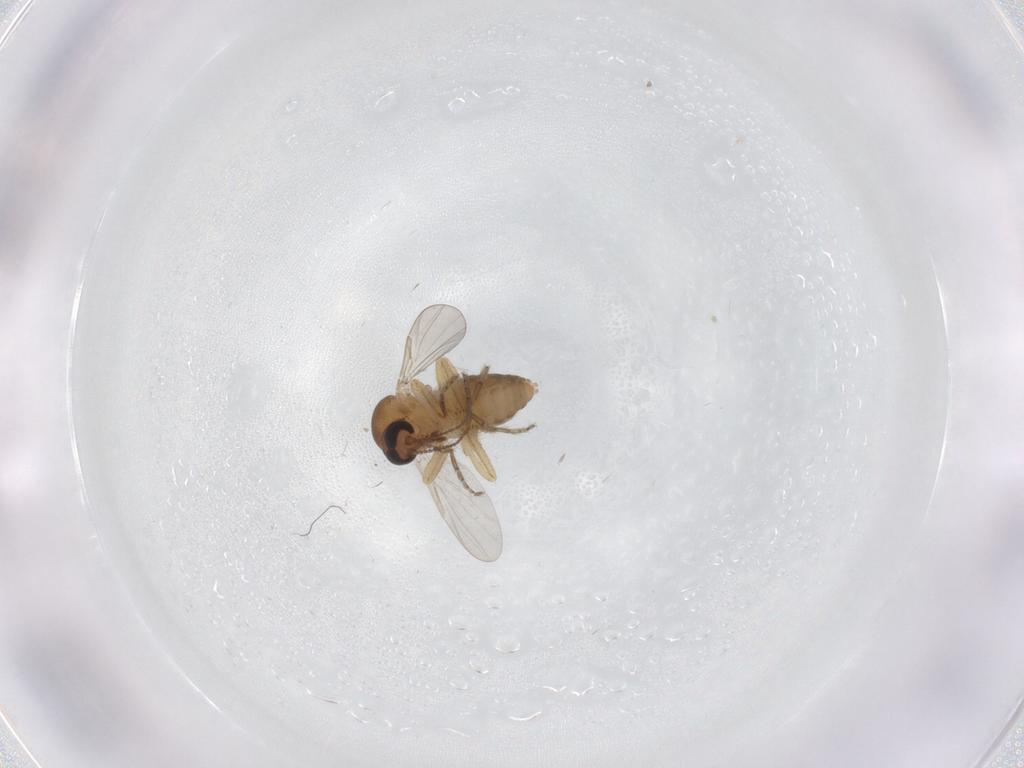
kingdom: Animalia
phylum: Arthropoda
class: Insecta
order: Diptera
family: Ceratopogonidae
